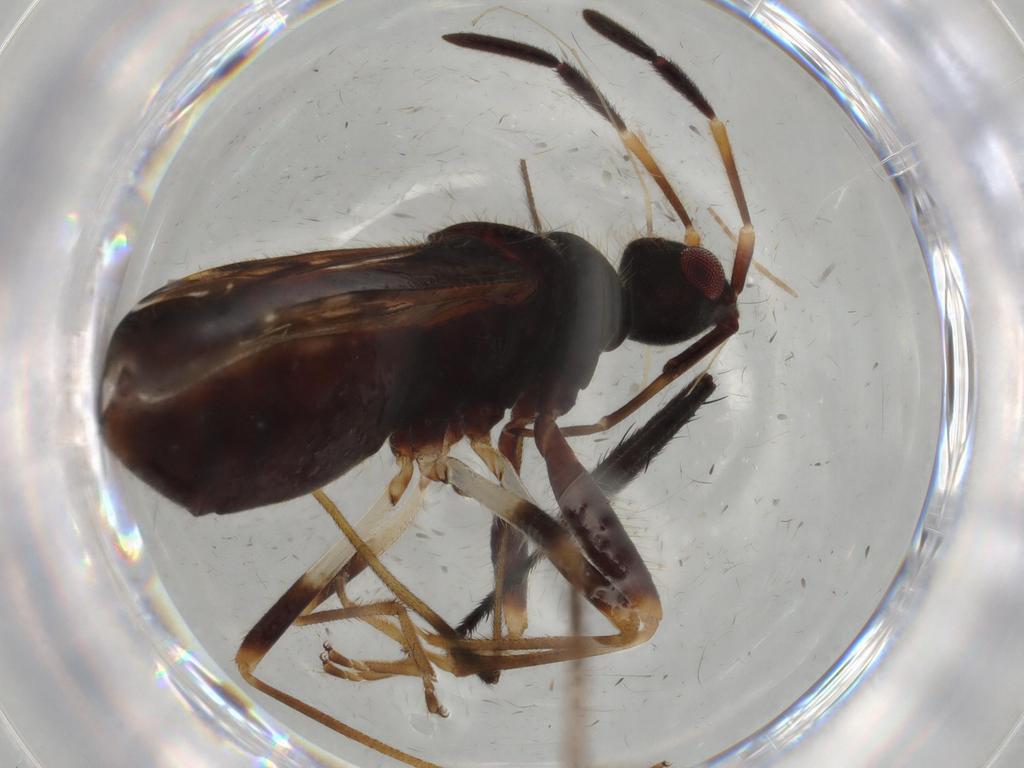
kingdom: Animalia
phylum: Arthropoda
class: Insecta
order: Hemiptera
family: Rhyparochromidae
